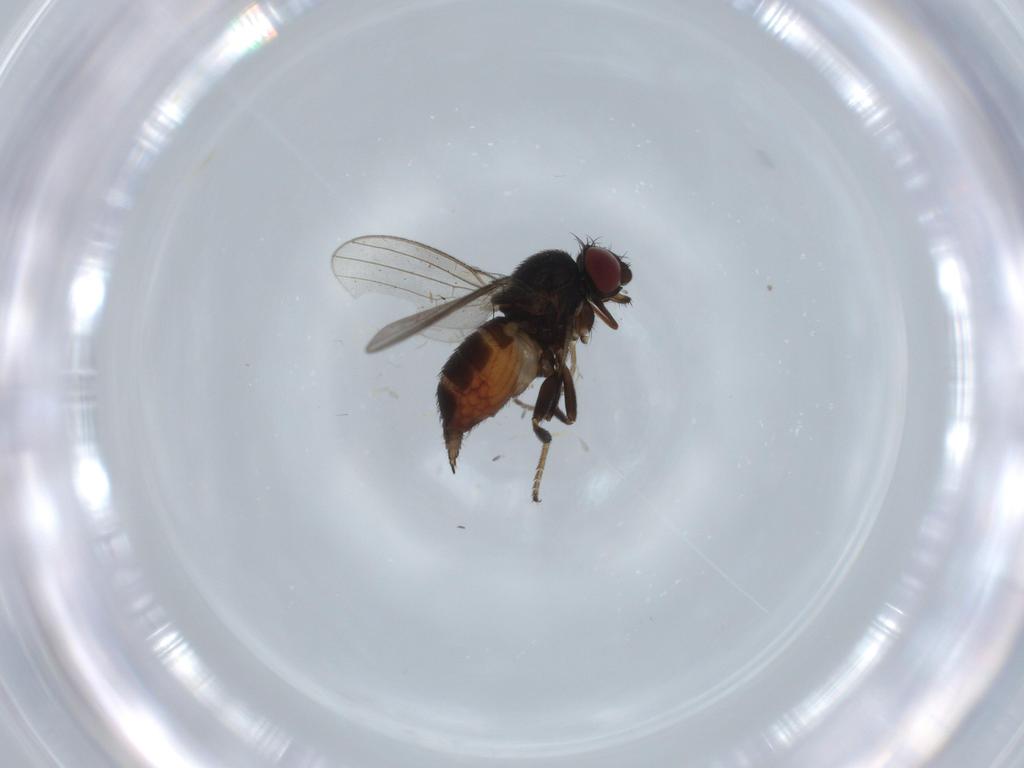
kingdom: Animalia
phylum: Arthropoda
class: Insecta
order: Diptera
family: Milichiidae
